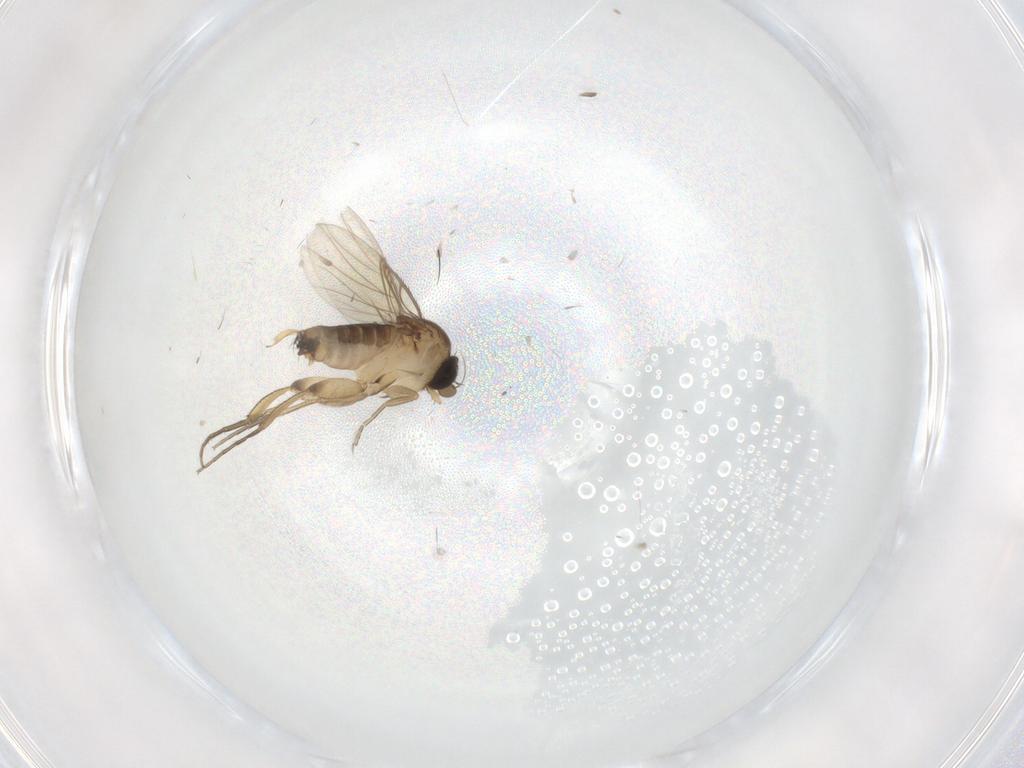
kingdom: Animalia
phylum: Arthropoda
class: Insecta
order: Diptera
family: Phoridae
